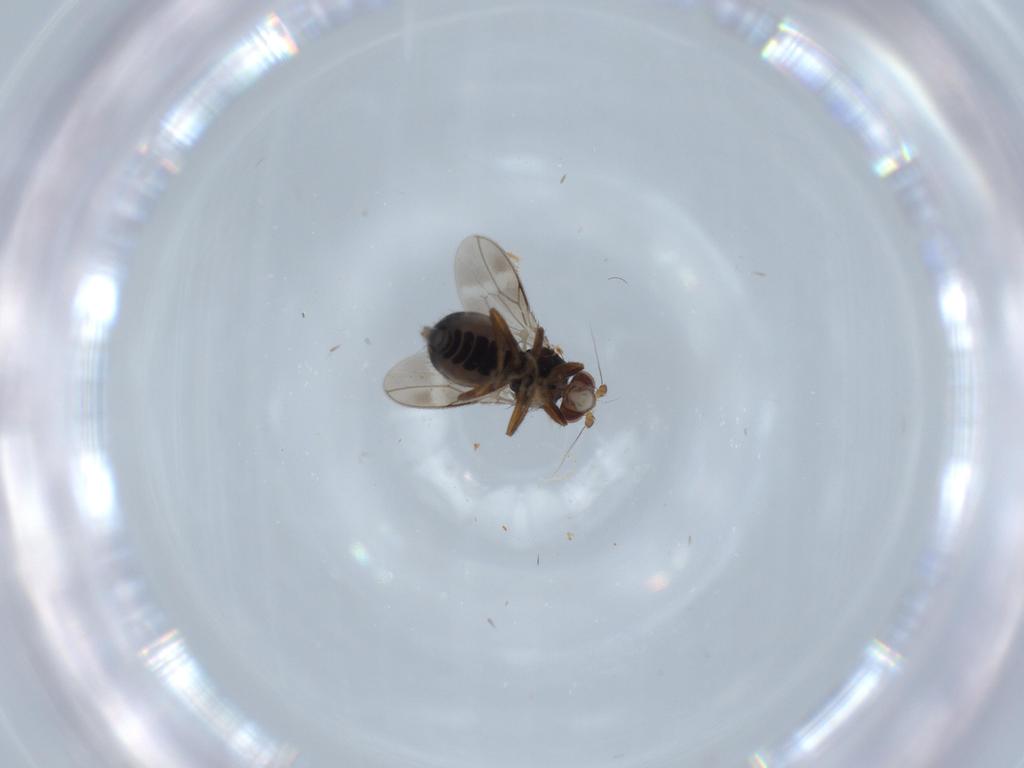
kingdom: Animalia
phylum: Arthropoda
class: Insecta
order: Diptera
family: Sphaeroceridae
